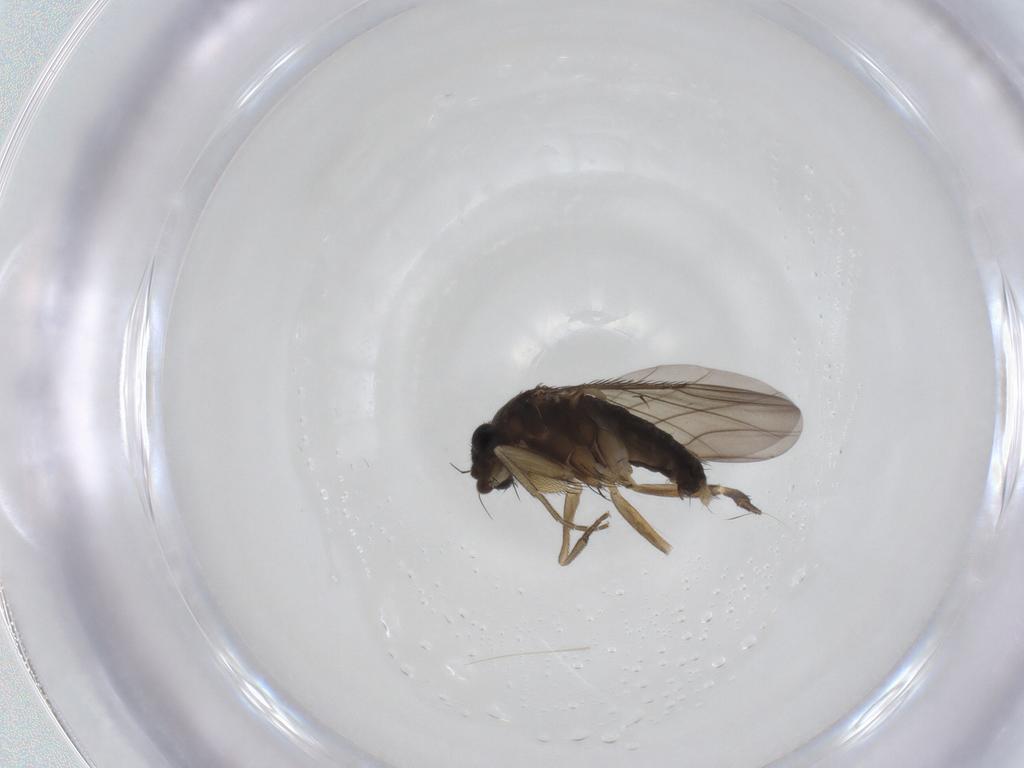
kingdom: Animalia
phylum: Arthropoda
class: Insecta
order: Diptera
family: Phoridae
